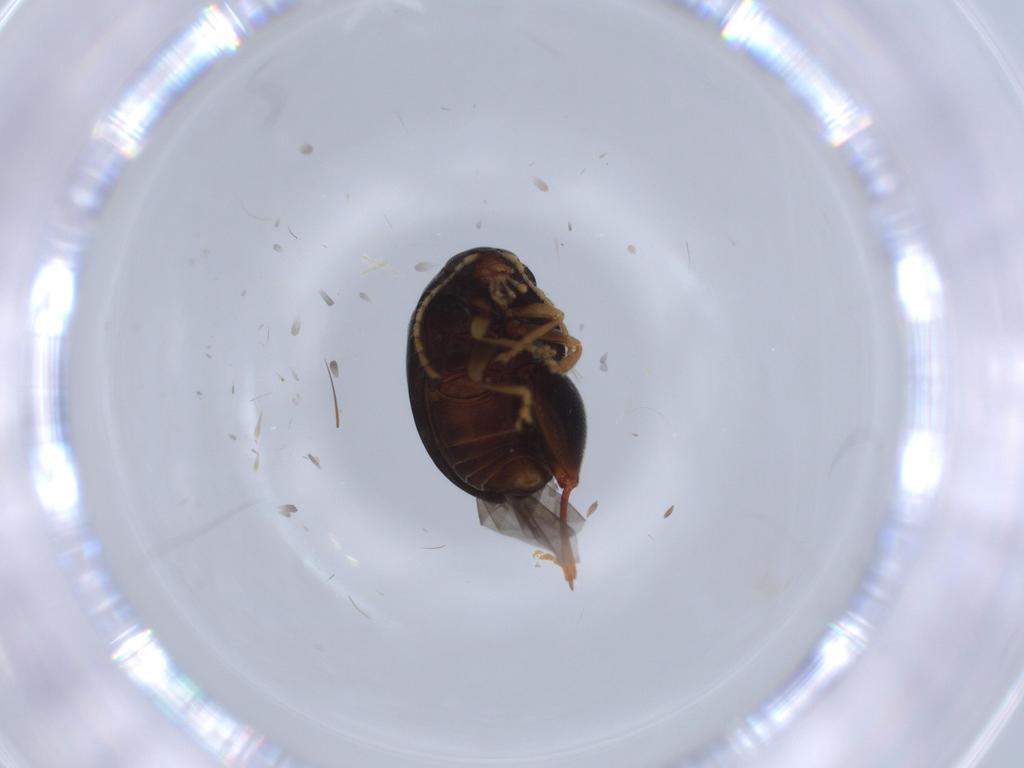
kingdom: Animalia
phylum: Arthropoda
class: Insecta
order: Coleoptera
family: Chrysomelidae
